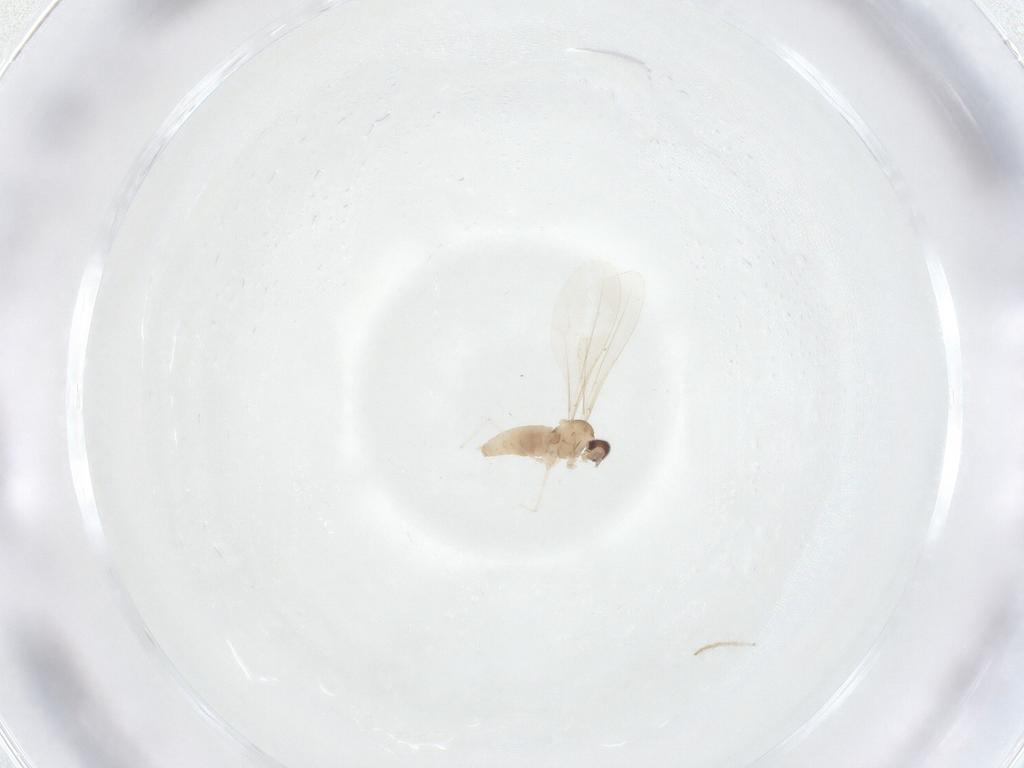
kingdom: Animalia
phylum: Arthropoda
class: Insecta
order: Diptera
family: Cecidomyiidae
